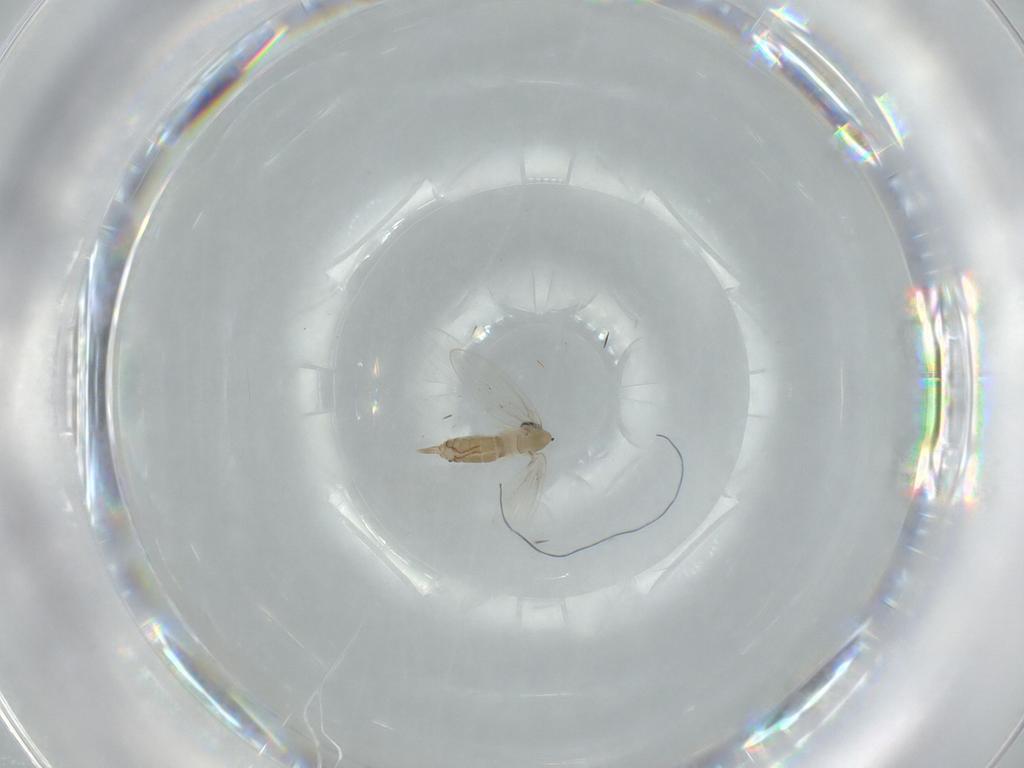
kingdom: Animalia
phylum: Arthropoda
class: Insecta
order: Diptera
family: Psychodidae
